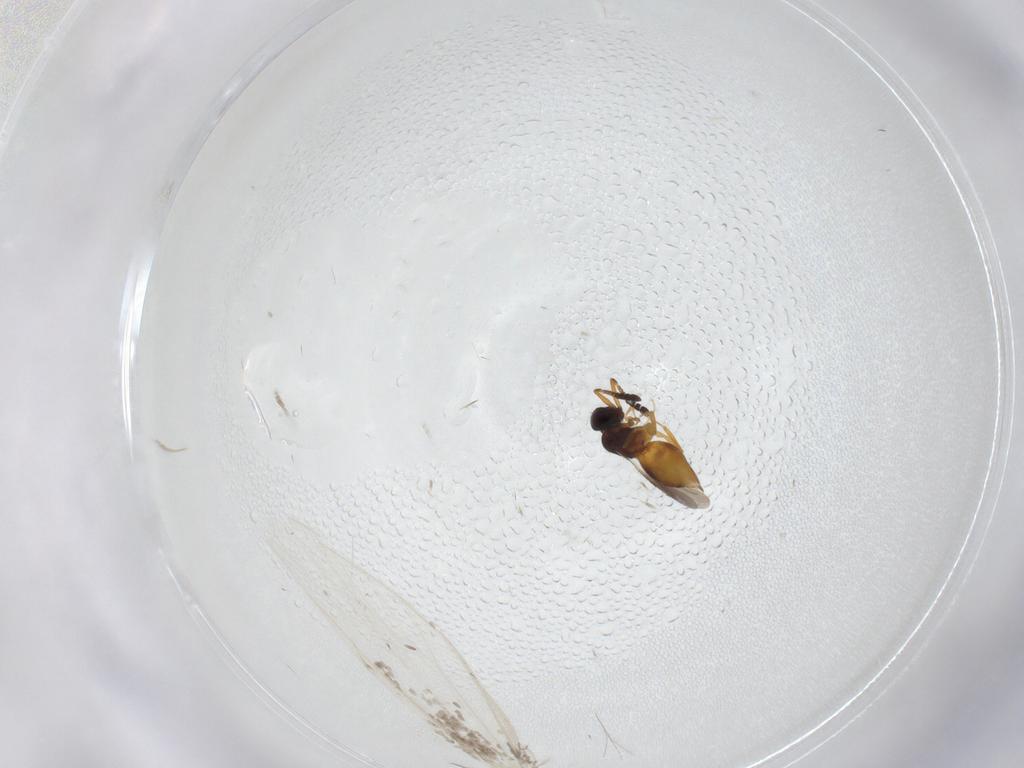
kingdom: Animalia
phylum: Arthropoda
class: Insecta
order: Hymenoptera
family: Ceraphronidae
